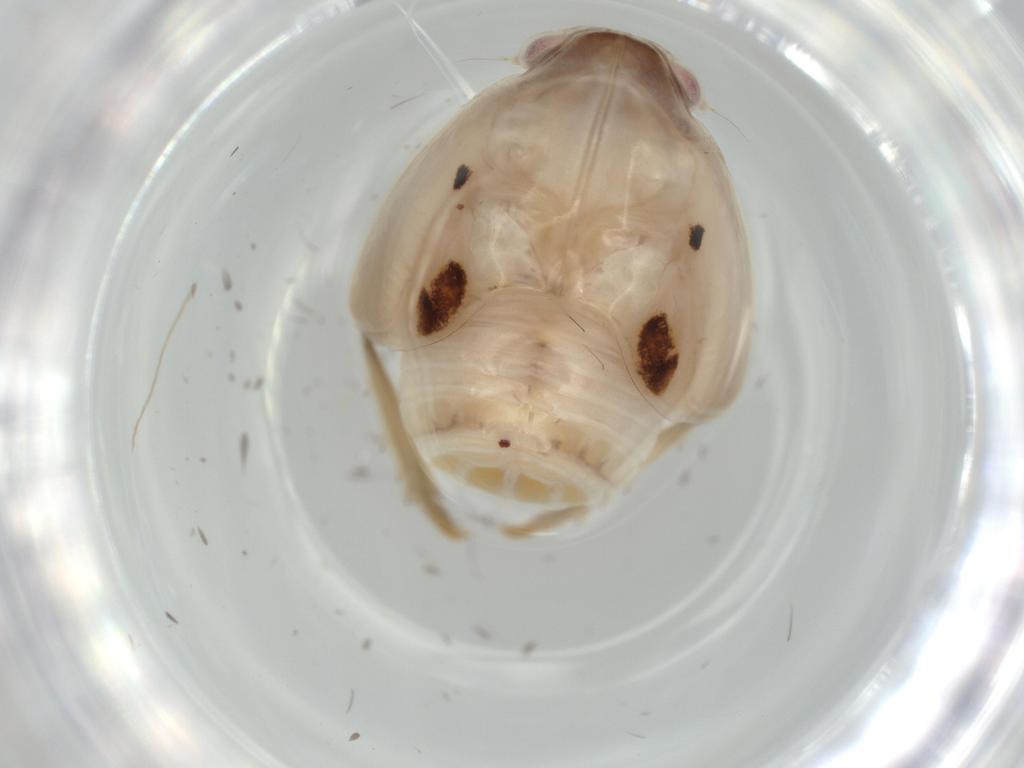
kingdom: Animalia
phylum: Arthropoda
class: Insecta
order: Hemiptera
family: Flatidae
